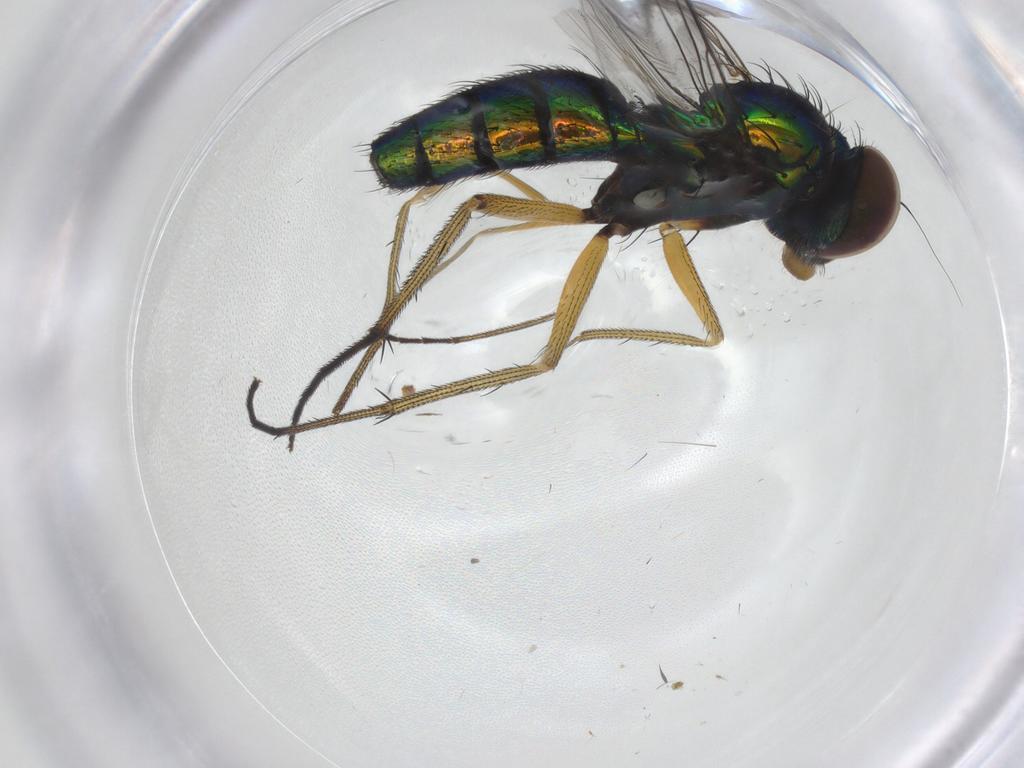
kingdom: Animalia
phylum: Arthropoda
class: Insecta
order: Diptera
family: Dolichopodidae
